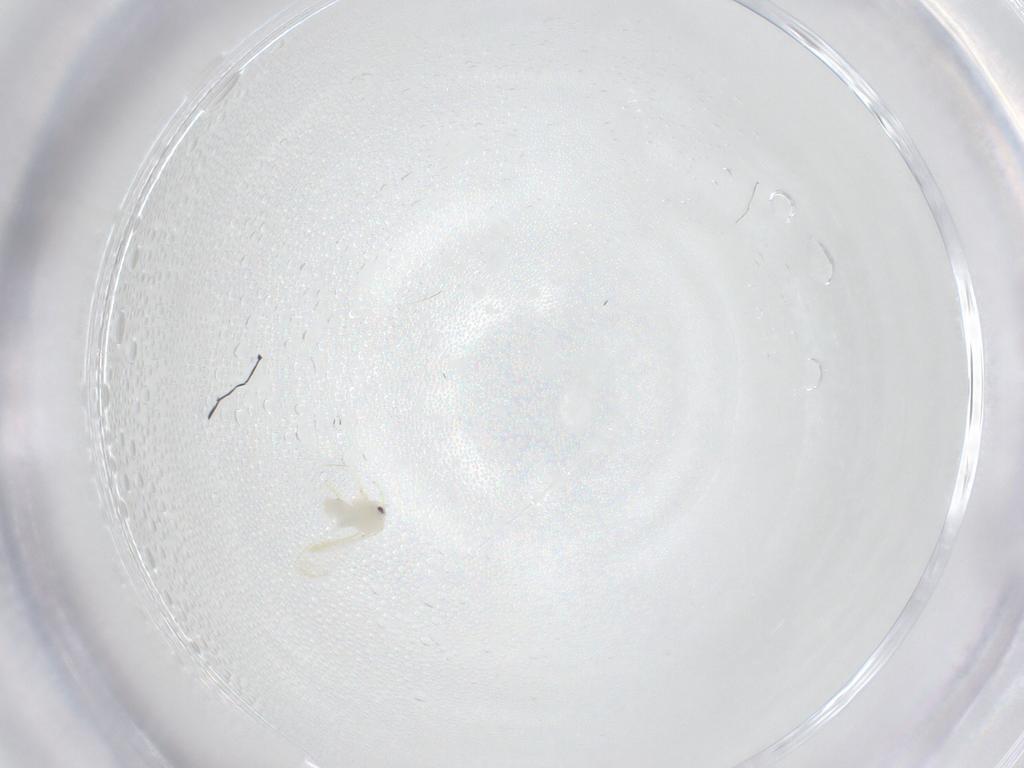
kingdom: Animalia
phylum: Arthropoda
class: Insecta
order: Hemiptera
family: Aleyrodidae
